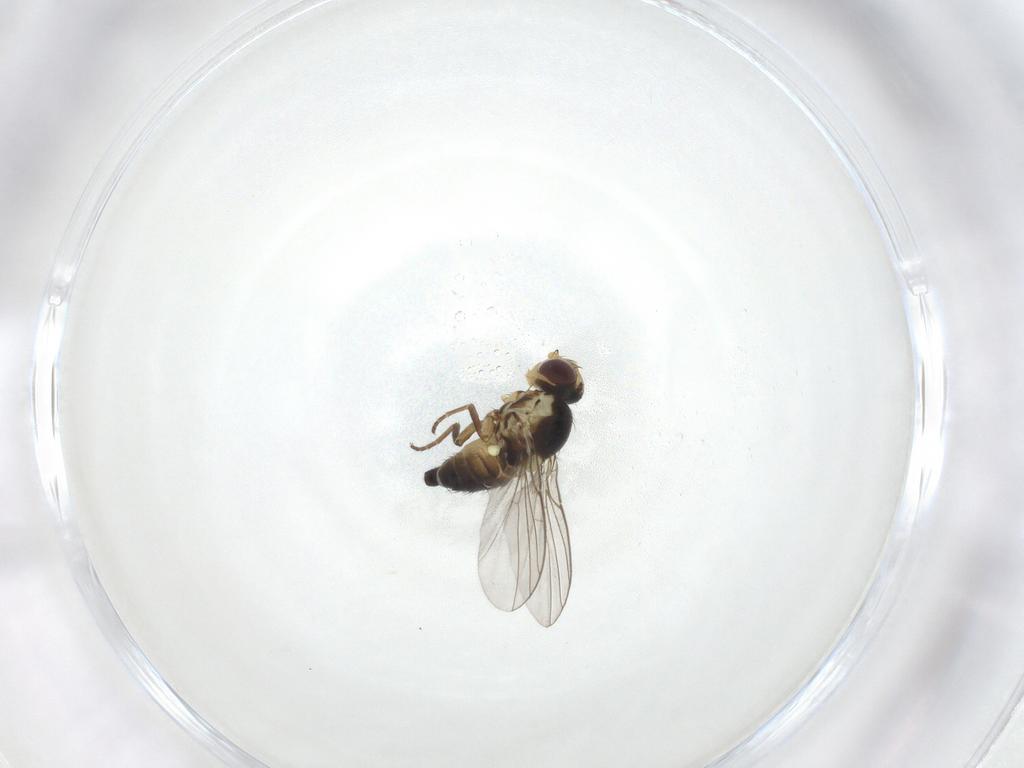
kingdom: Animalia
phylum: Arthropoda
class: Insecta
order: Diptera
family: Agromyzidae
